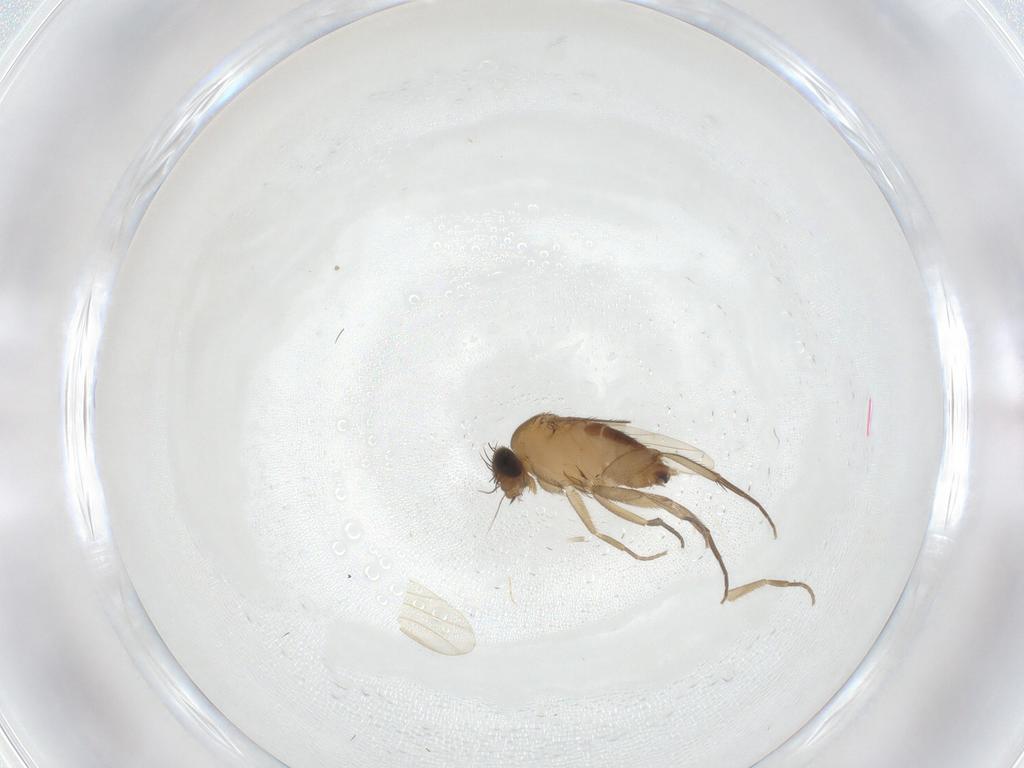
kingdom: Animalia
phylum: Arthropoda
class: Insecta
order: Diptera
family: Phoridae
